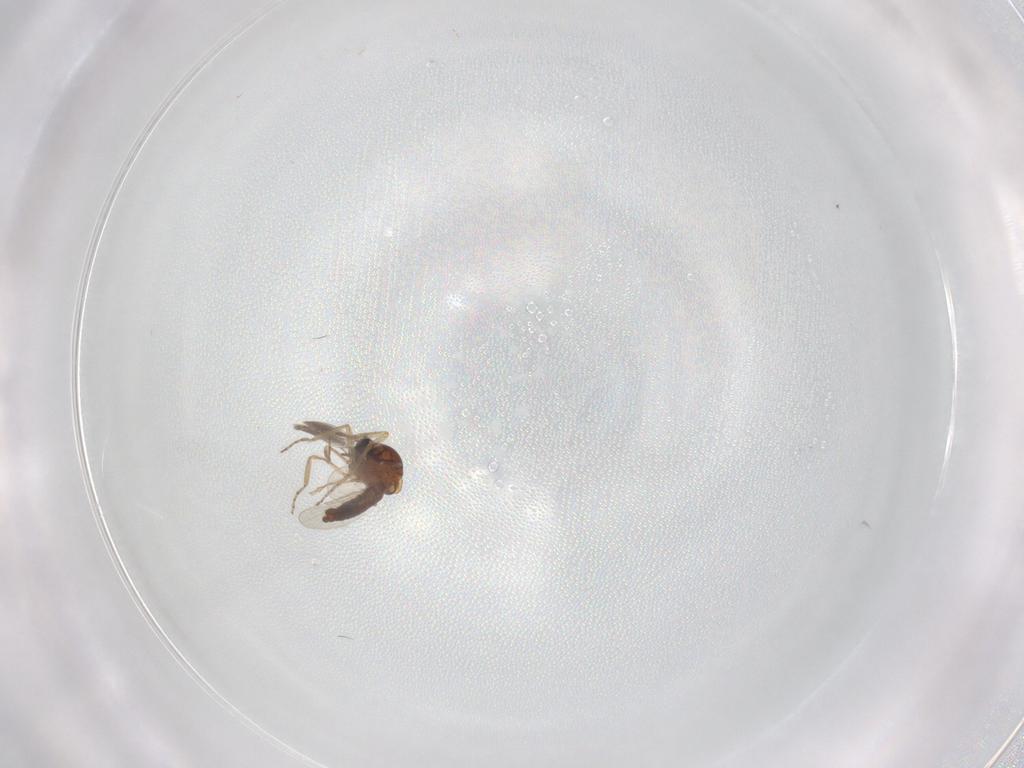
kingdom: Animalia
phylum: Arthropoda
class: Insecta
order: Diptera
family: Ceratopogonidae
